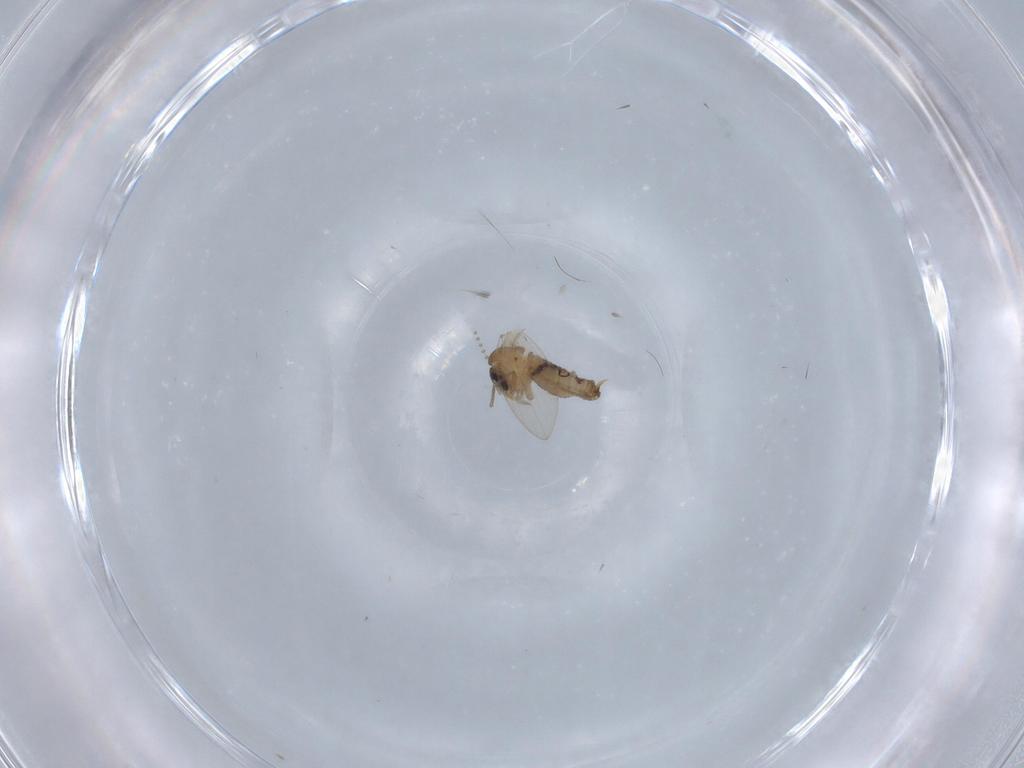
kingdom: Animalia
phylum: Arthropoda
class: Insecta
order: Diptera
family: Psychodidae
